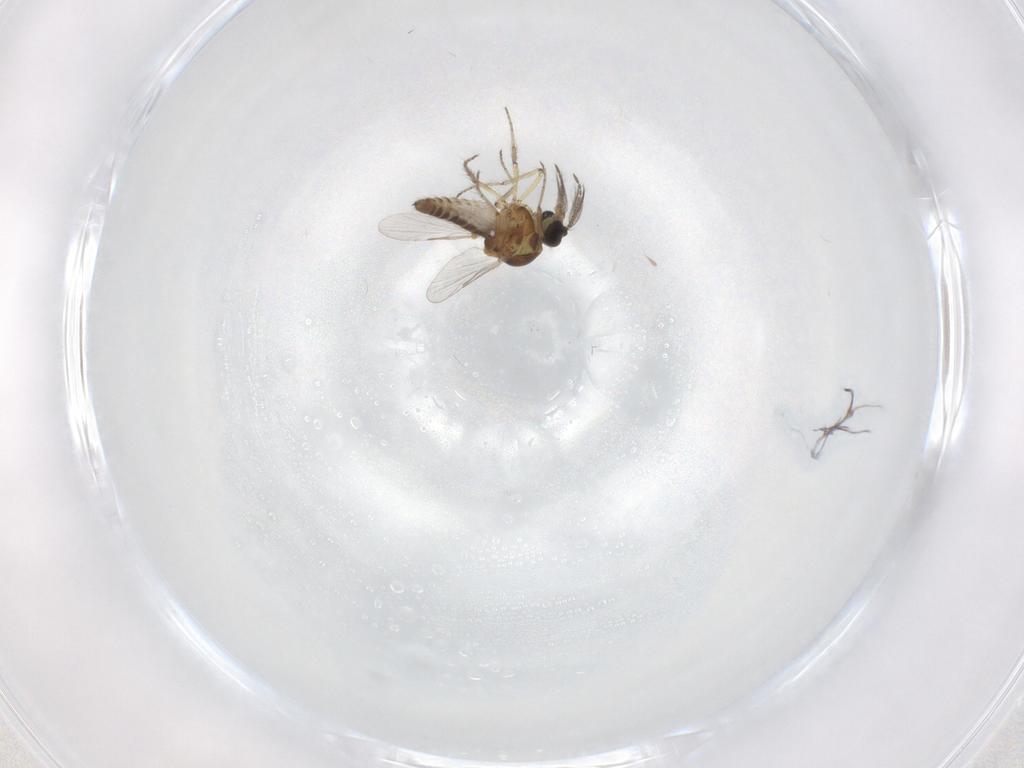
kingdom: Animalia
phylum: Arthropoda
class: Insecta
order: Diptera
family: Ceratopogonidae
